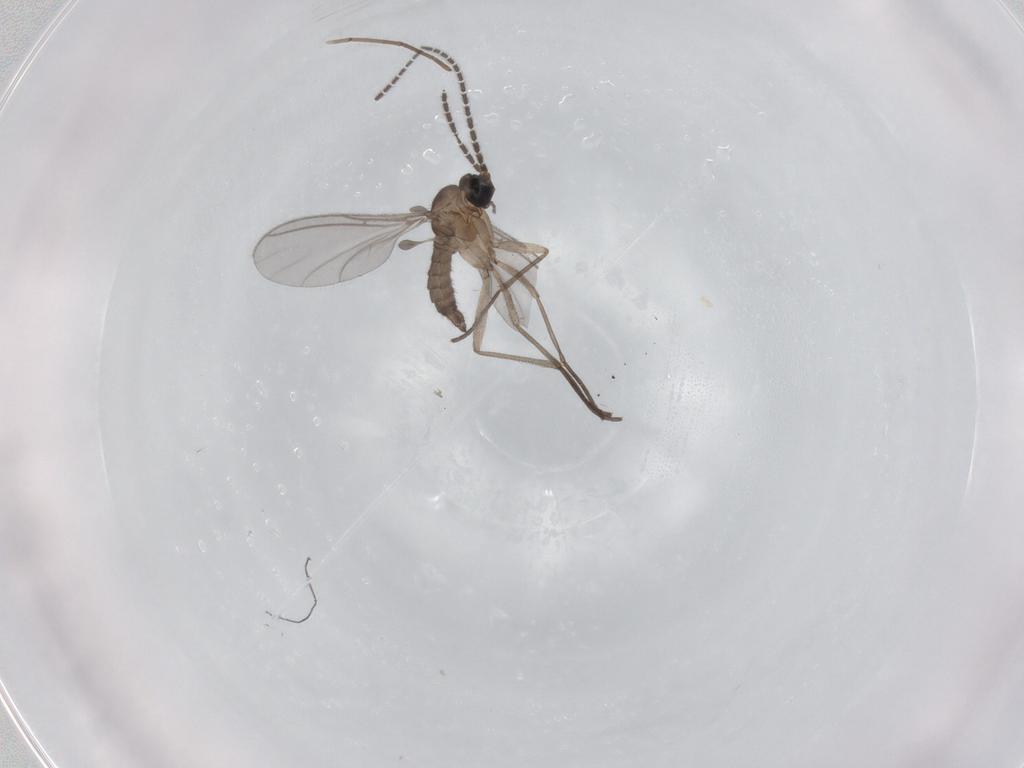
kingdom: Animalia
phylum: Arthropoda
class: Insecta
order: Diptera
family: Sciaridae
